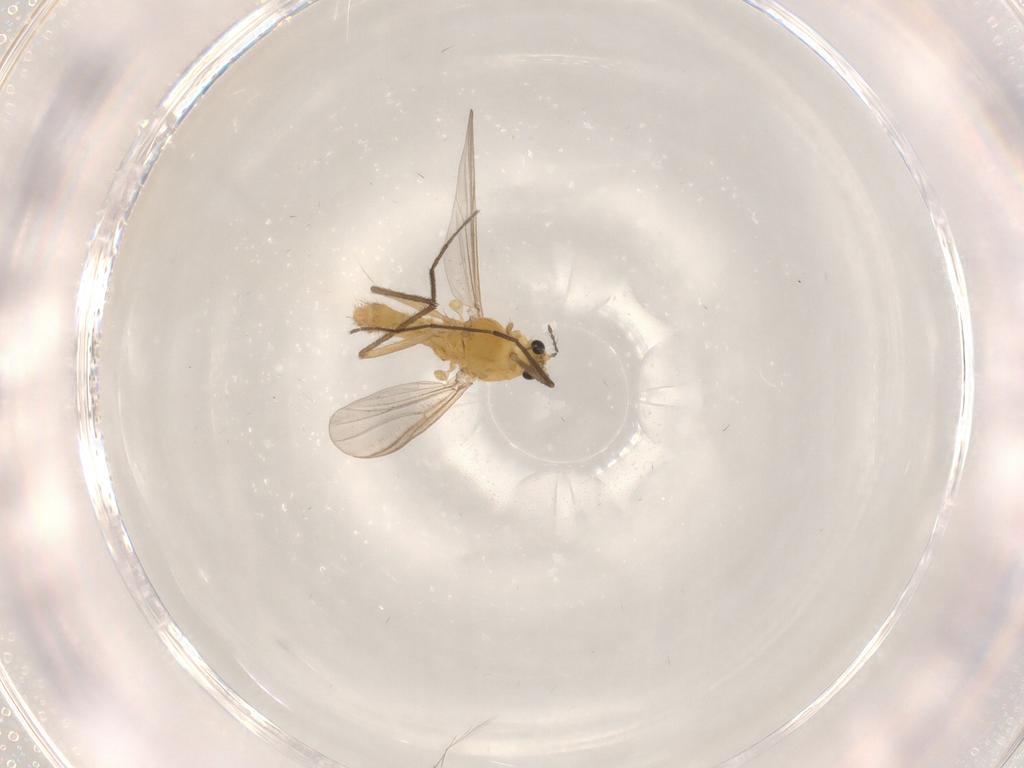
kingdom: Animalia
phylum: Arthropoda
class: Insecta
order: Diptera
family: Chironomidae
